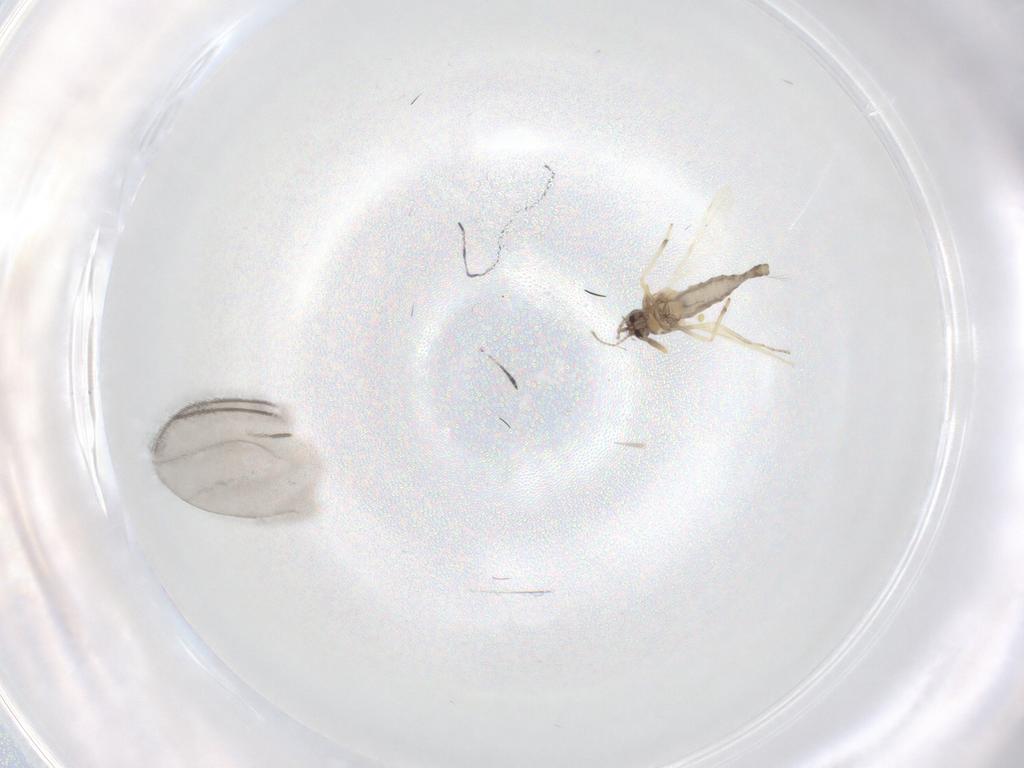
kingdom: Animalia
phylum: Arthropoda
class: Insecta
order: Diptera
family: Ceratopogonidae
